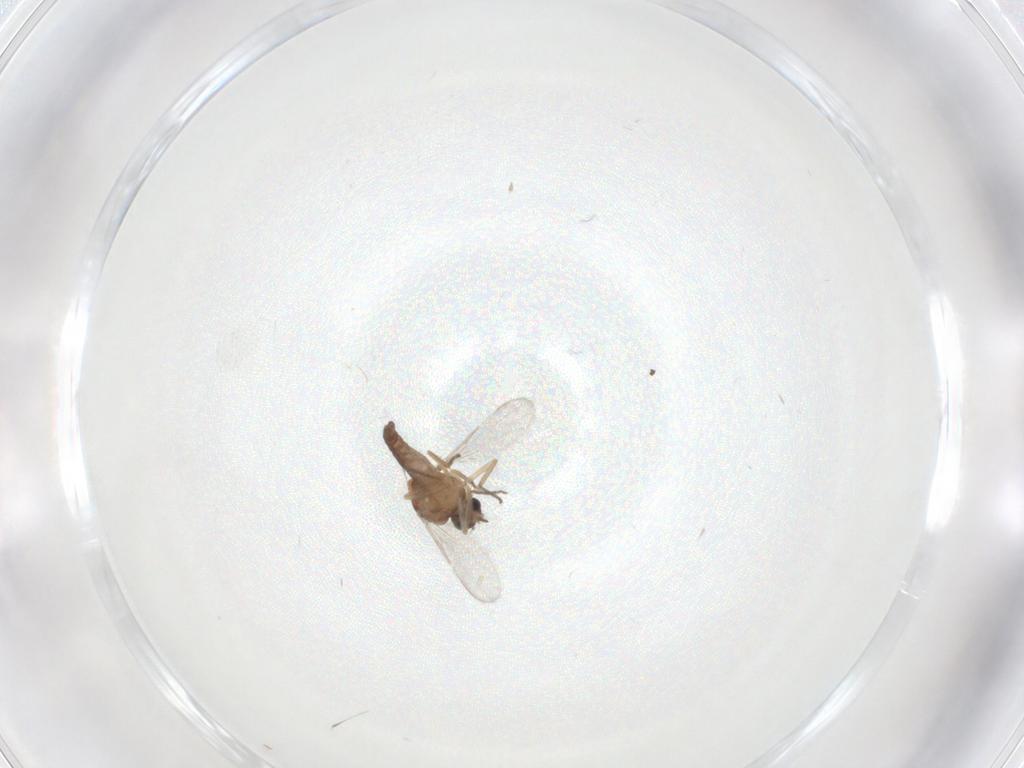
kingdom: Animalia
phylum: Arthropoda
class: Insecta
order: Diptera
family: Ceratopogonidae
